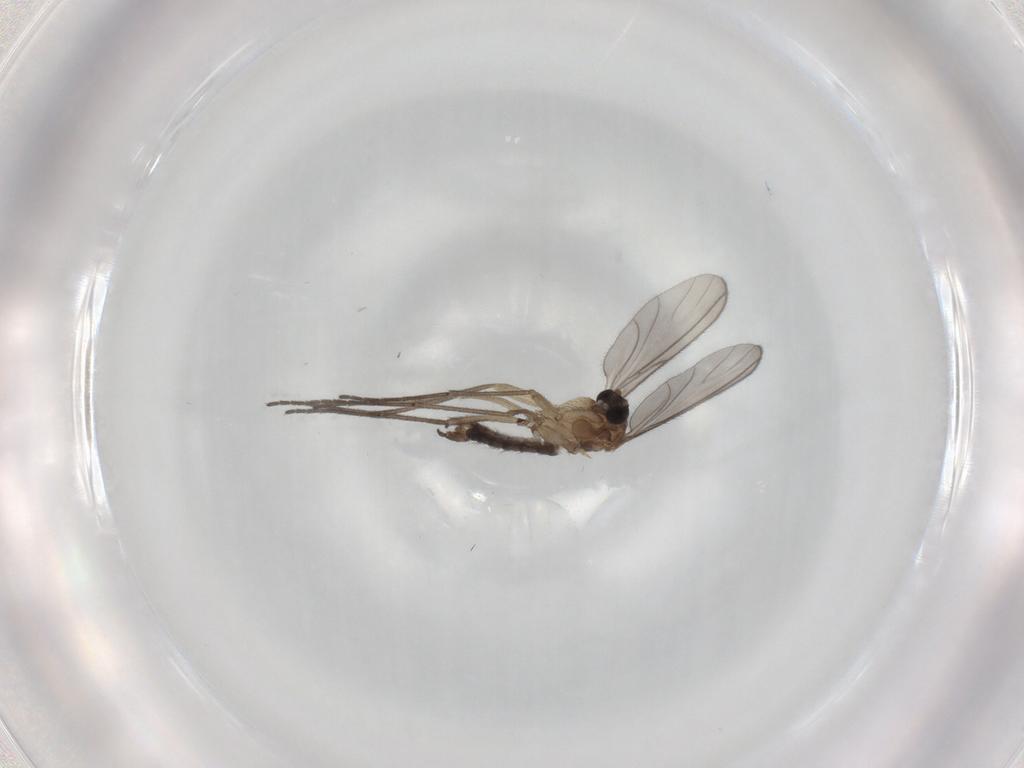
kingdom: Animalia
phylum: Arthropoda
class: Insecta
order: Diptera
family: Sciaridae
